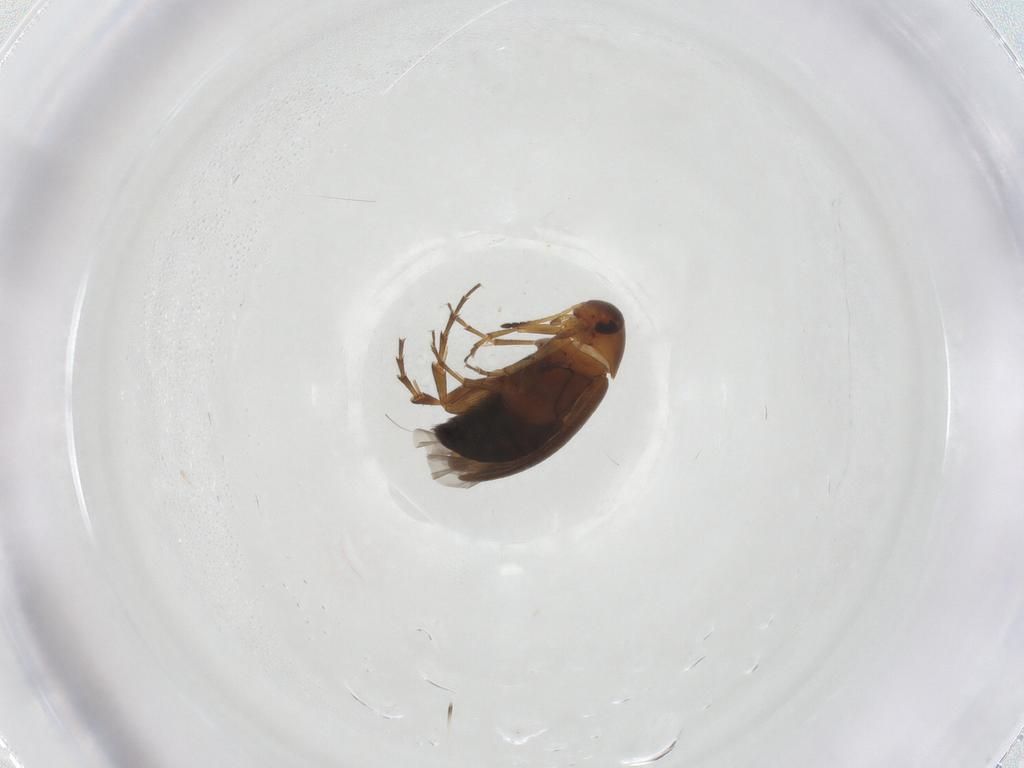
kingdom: Animalia
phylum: Arthropoda
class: Insecta
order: Coleoptera
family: Scraptiidae
